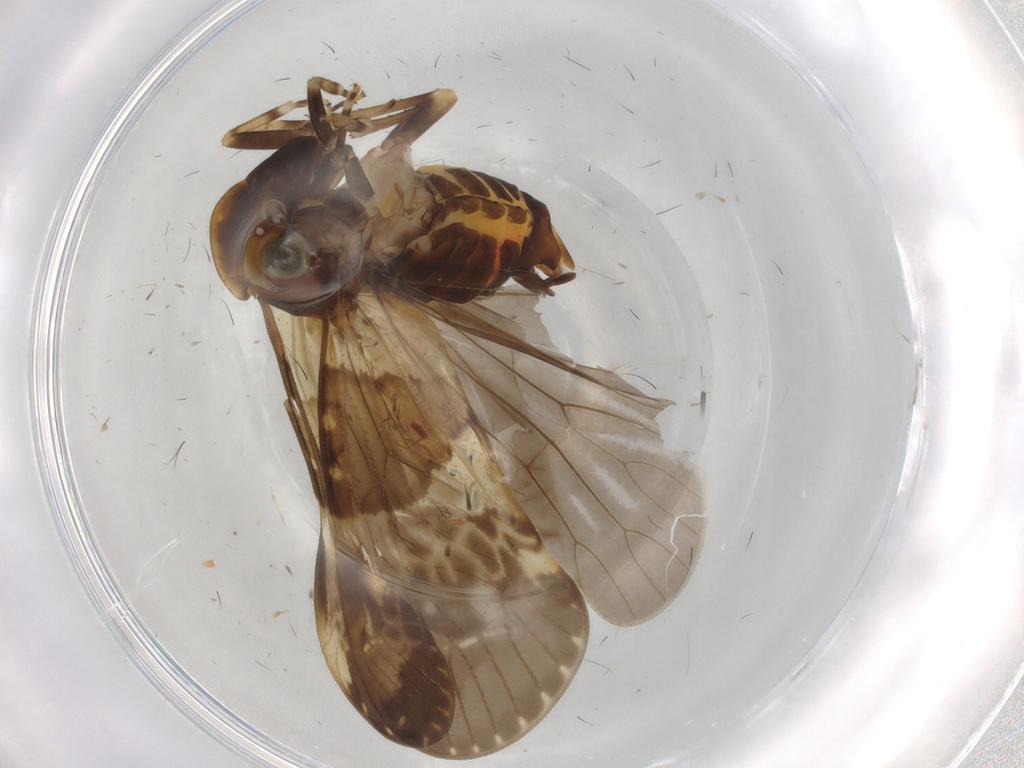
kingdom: Animalia
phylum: Arthropoda
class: Insecta
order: Hemiptera
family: Cixiidae
